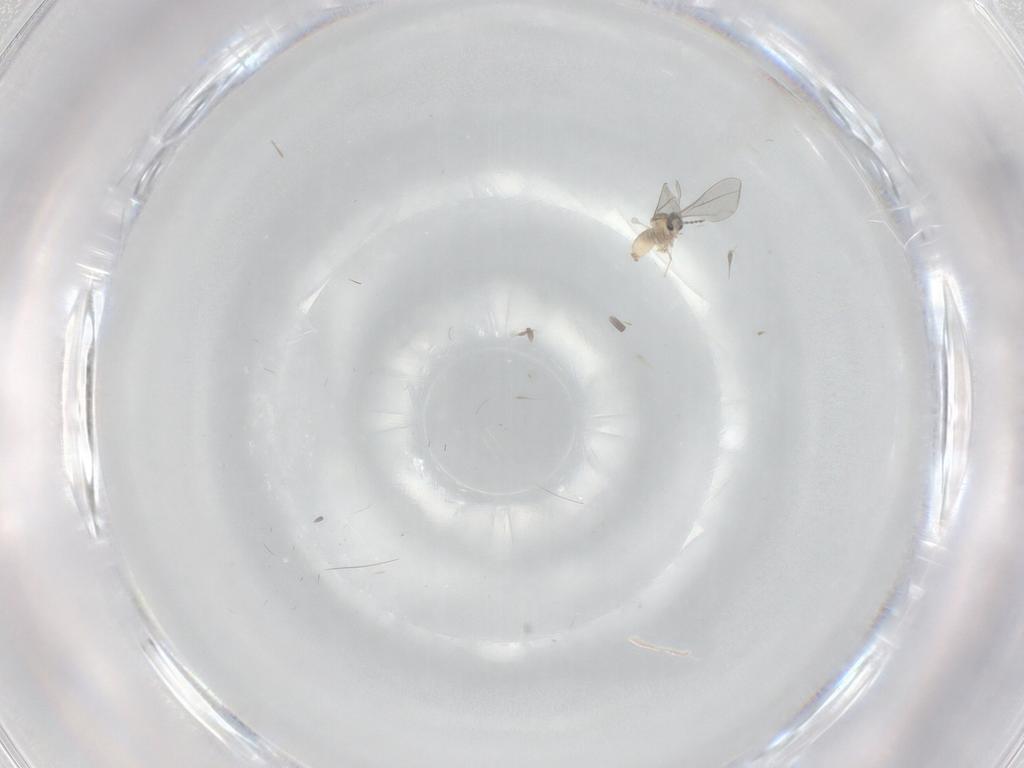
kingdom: Animalia
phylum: Arthropoda
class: Insecta
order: Diptera
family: Cecidomyiidae
